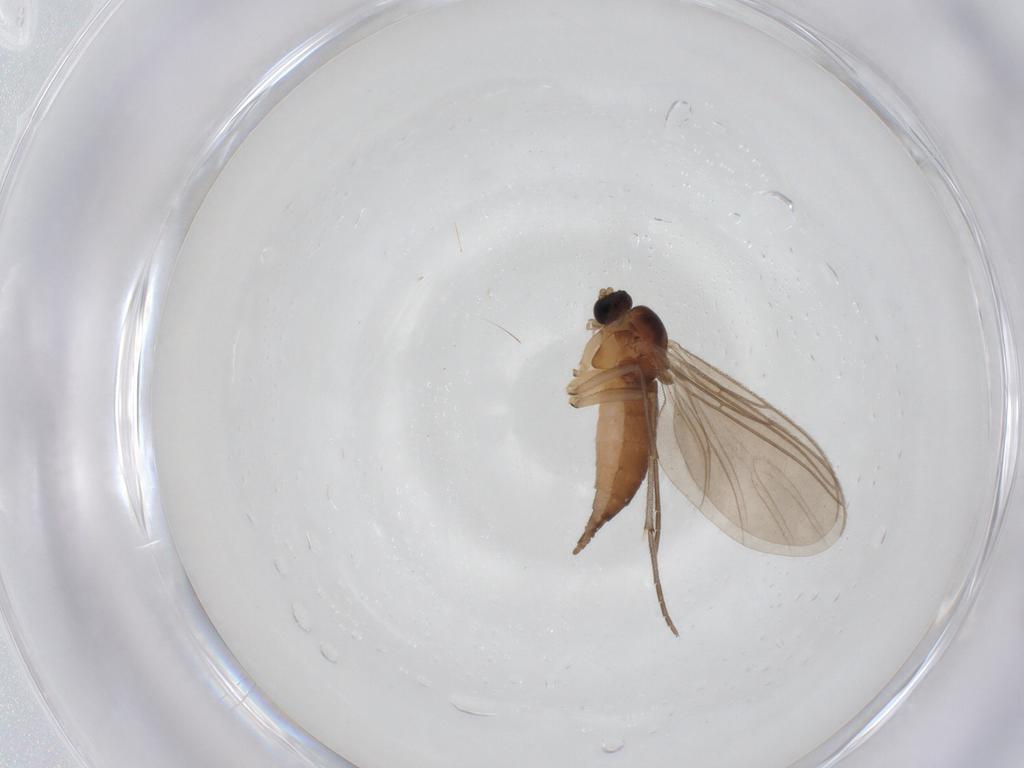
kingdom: Animalia
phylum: Arthropoda
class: Insecta
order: Diptera
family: Sciaridae
